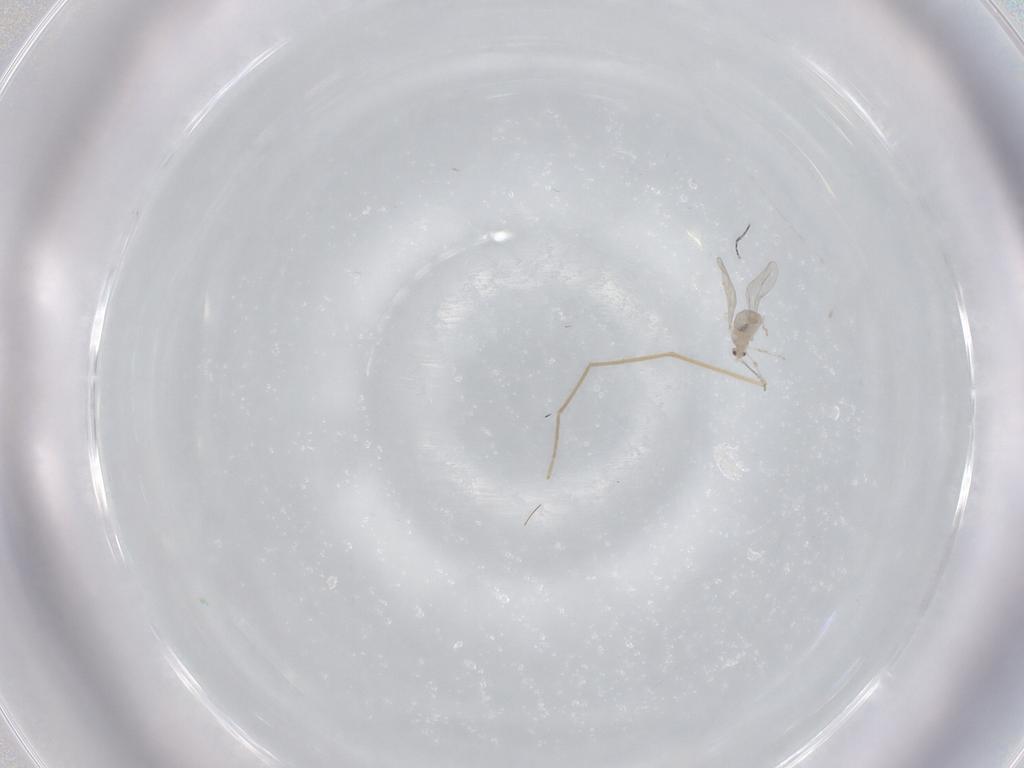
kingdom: Animalia
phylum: Arthropoda
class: Insecta
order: Diptera
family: Cecidomyiidae
